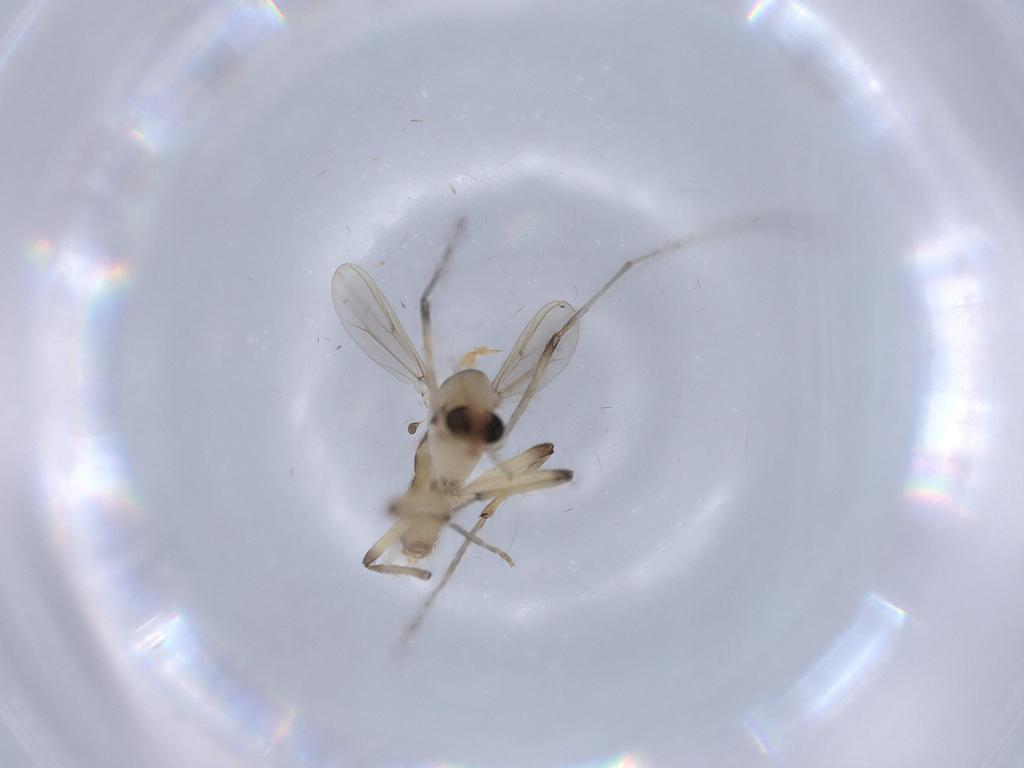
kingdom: Animalia
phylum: Arthropoda
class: Insecta
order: Diptera
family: Chironomidae
